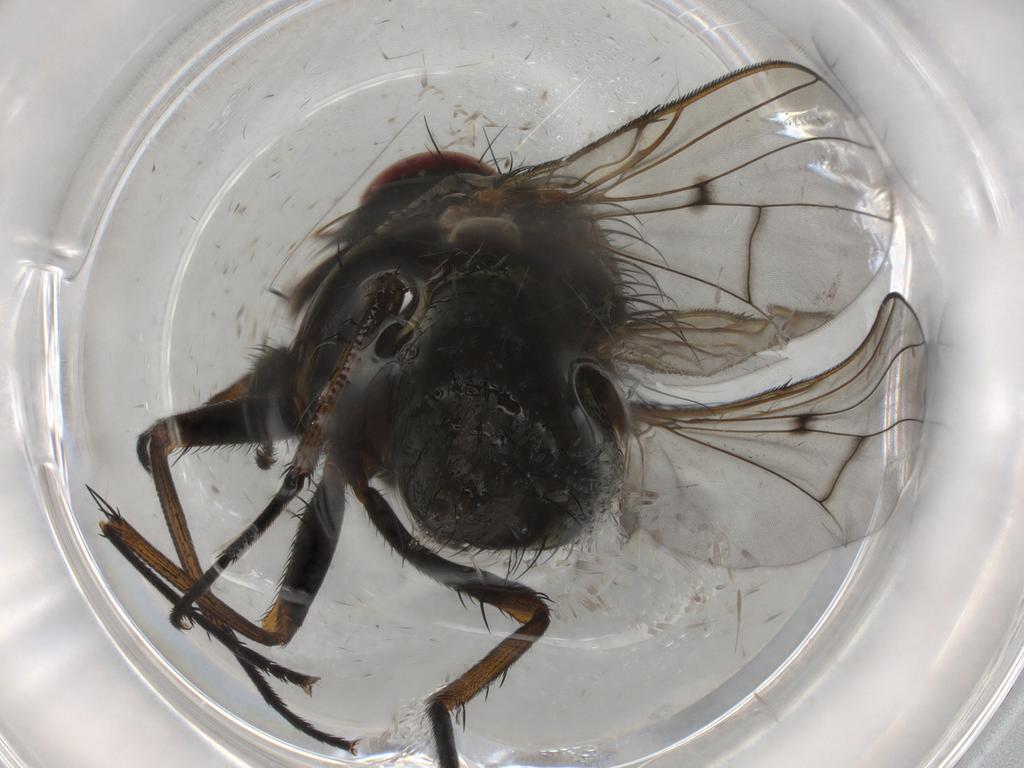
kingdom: Animalia
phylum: Arthropoda
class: Insecta
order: Diptera
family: Muscidae
